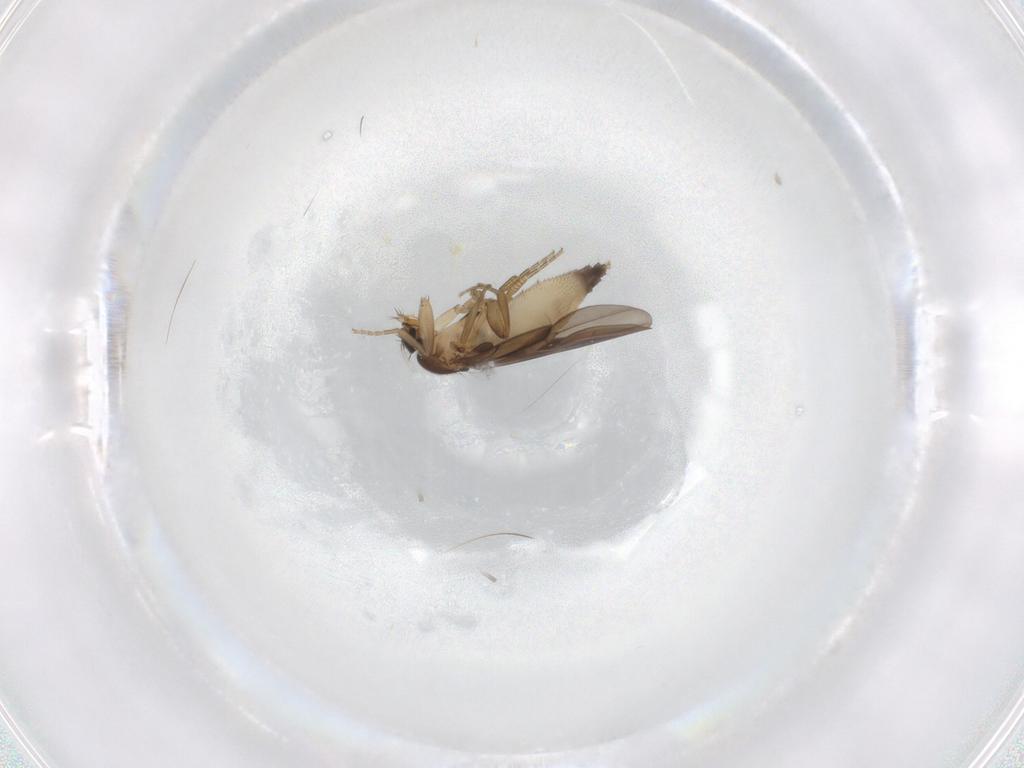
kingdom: Animalia
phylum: Arthropoda
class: Insecta
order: Diptera
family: Phoridae
